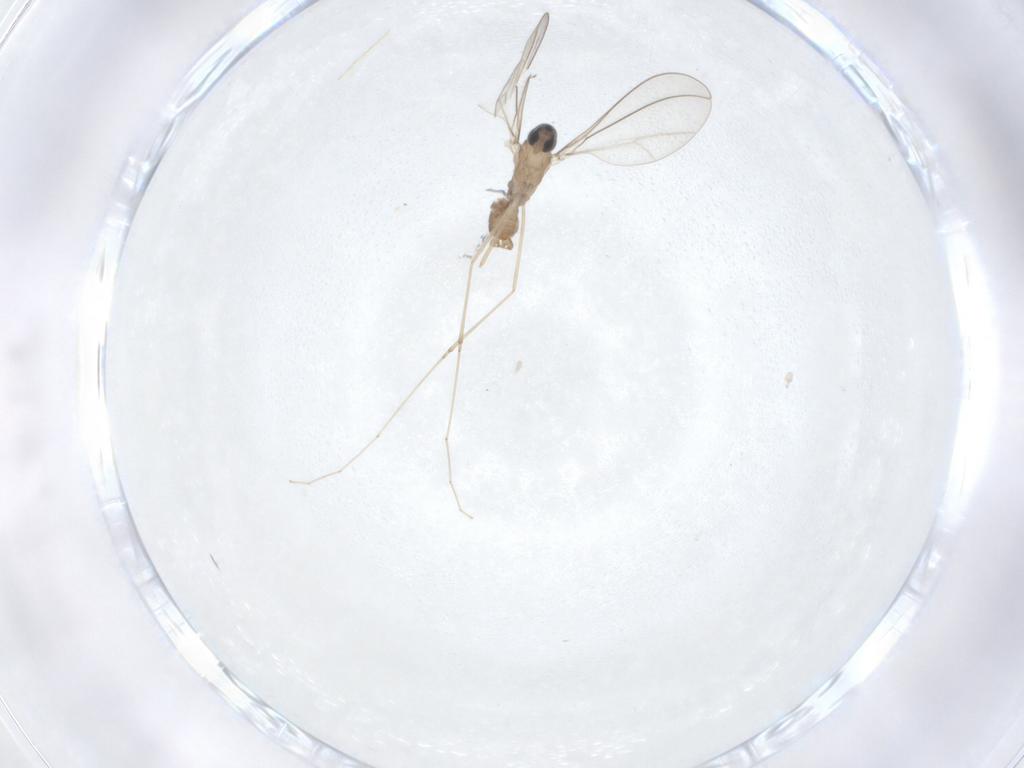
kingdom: Animalia
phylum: Arthropoda
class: Insecta
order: Diptera
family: Cecidomyiidae
